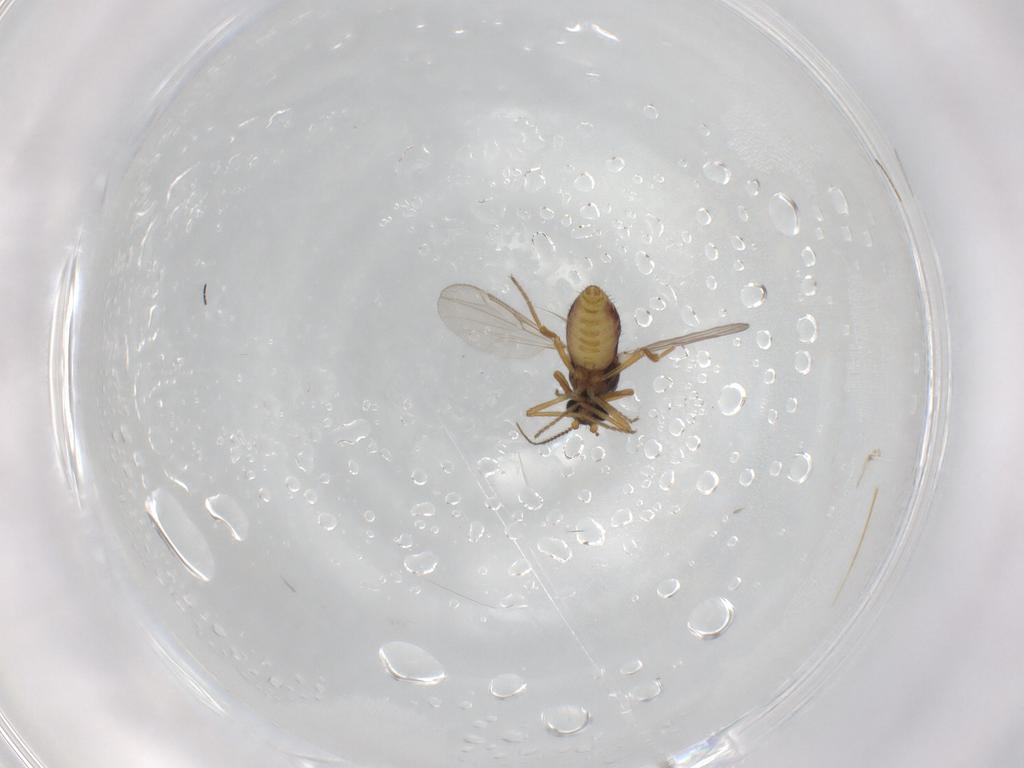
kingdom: Animalia
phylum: Arthropoda
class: Insecta
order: Diptera
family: Ceratopogonidae
